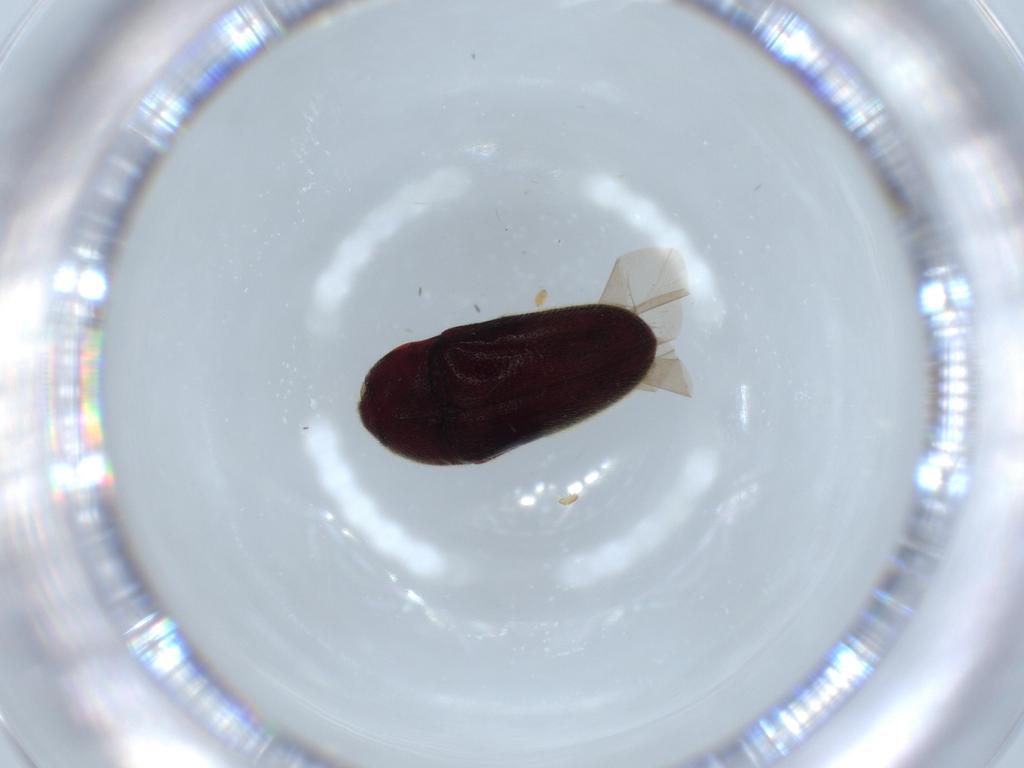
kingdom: Animalia
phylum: Arthropoda
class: Insecta
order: Coleoptera
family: Throscidae
